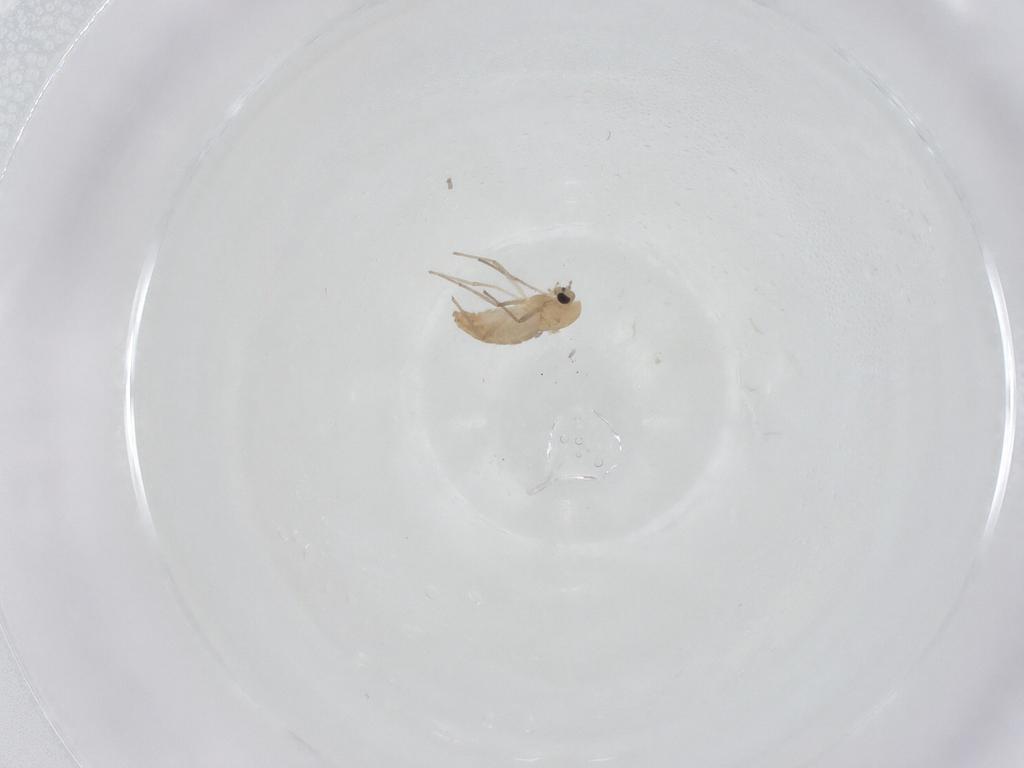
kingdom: Animalia
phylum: Arthropoda
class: Insecta
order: Diptera
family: Chironomidae
